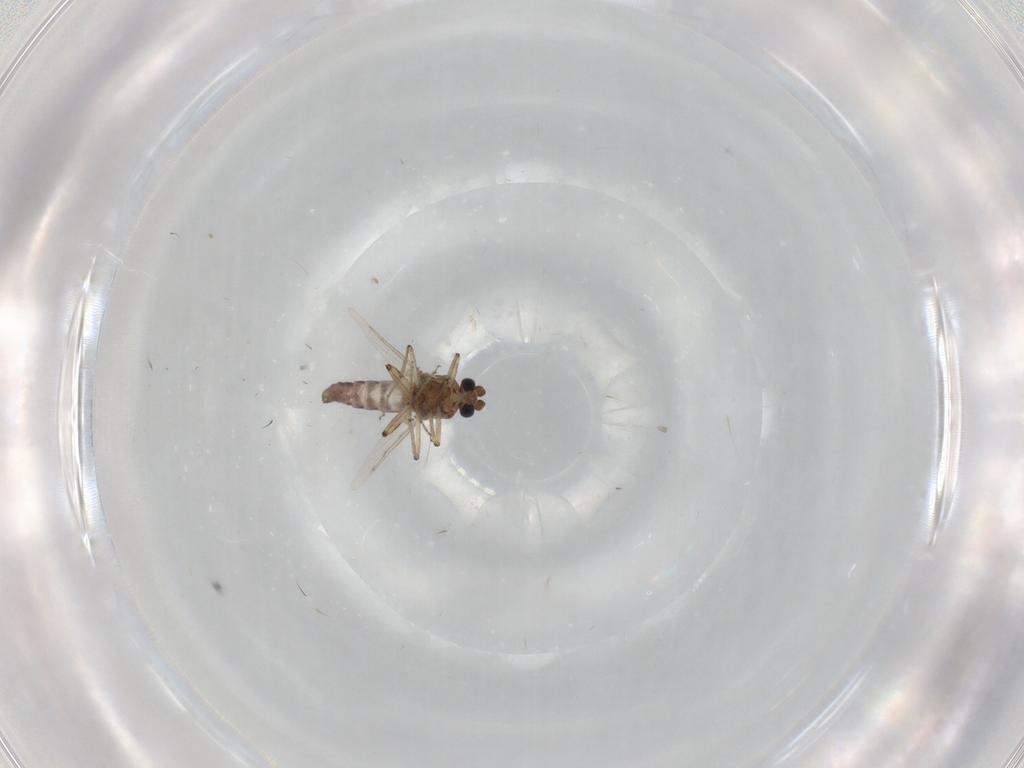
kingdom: Animalia
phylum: Arthropoda
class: Insecta
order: Diptera
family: Ceratopogonidae
